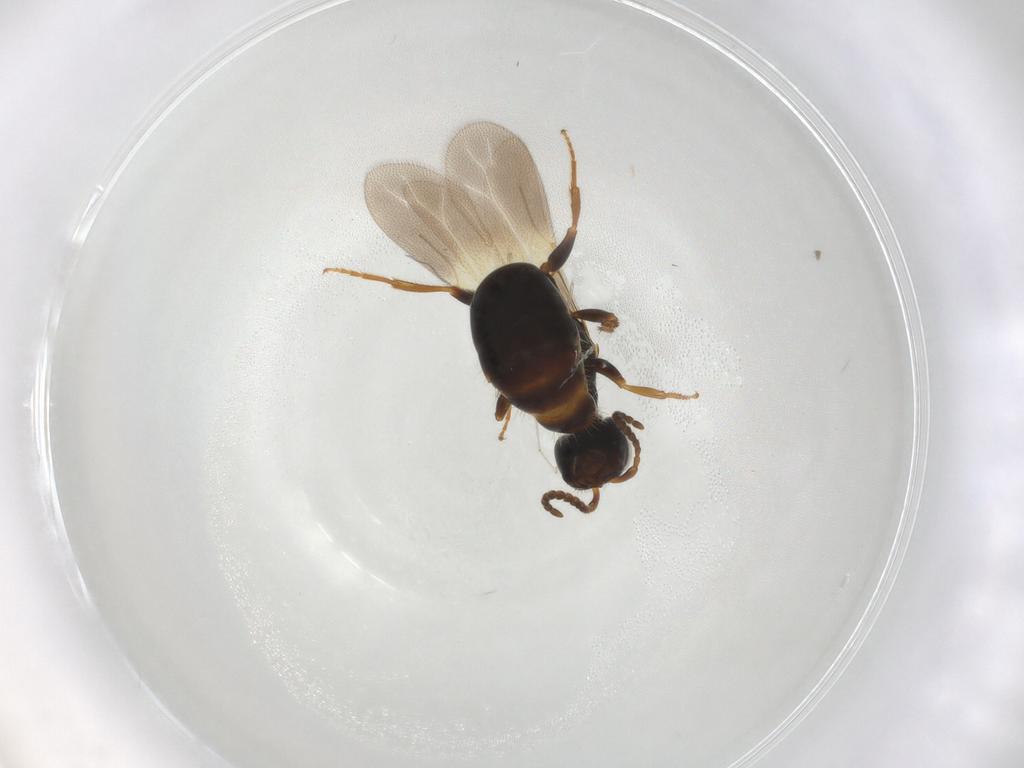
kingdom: Animalia
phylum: Arthropoda
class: Insecta
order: Hymenoptera
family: Bethylidae
